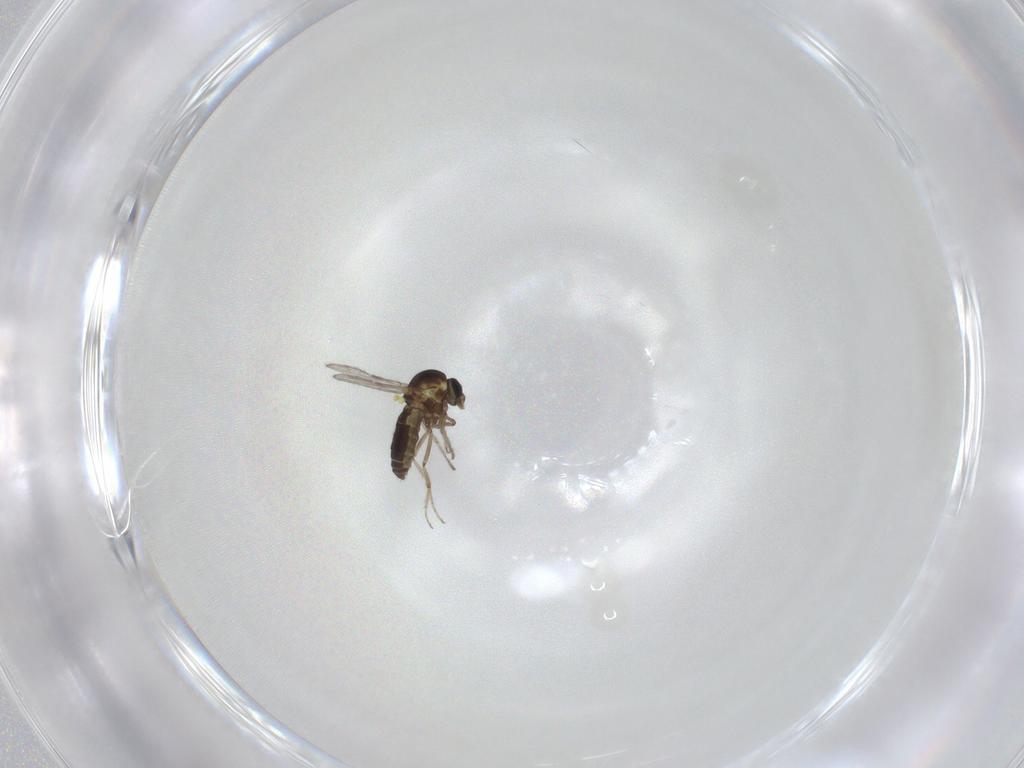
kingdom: Animalia
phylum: Arthropoda
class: Insecta
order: Diptera
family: Ceratopogonidae
